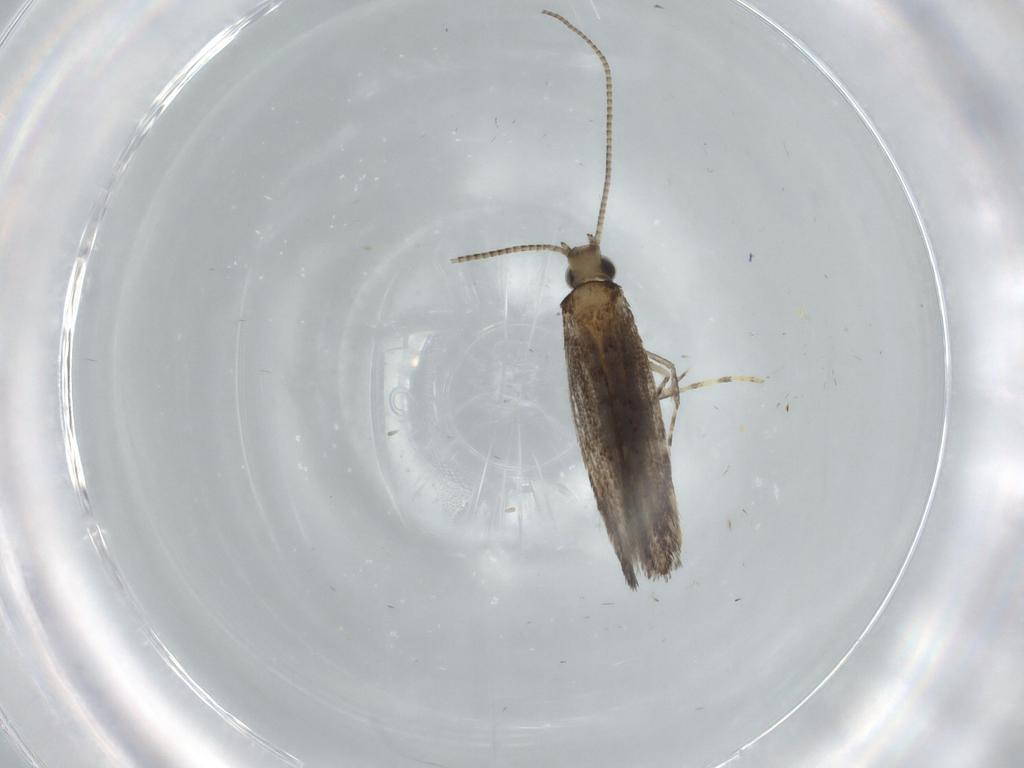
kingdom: Animalia
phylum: Arthropoda
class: Insecta
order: Lepidoptera
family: Gracillariidae
